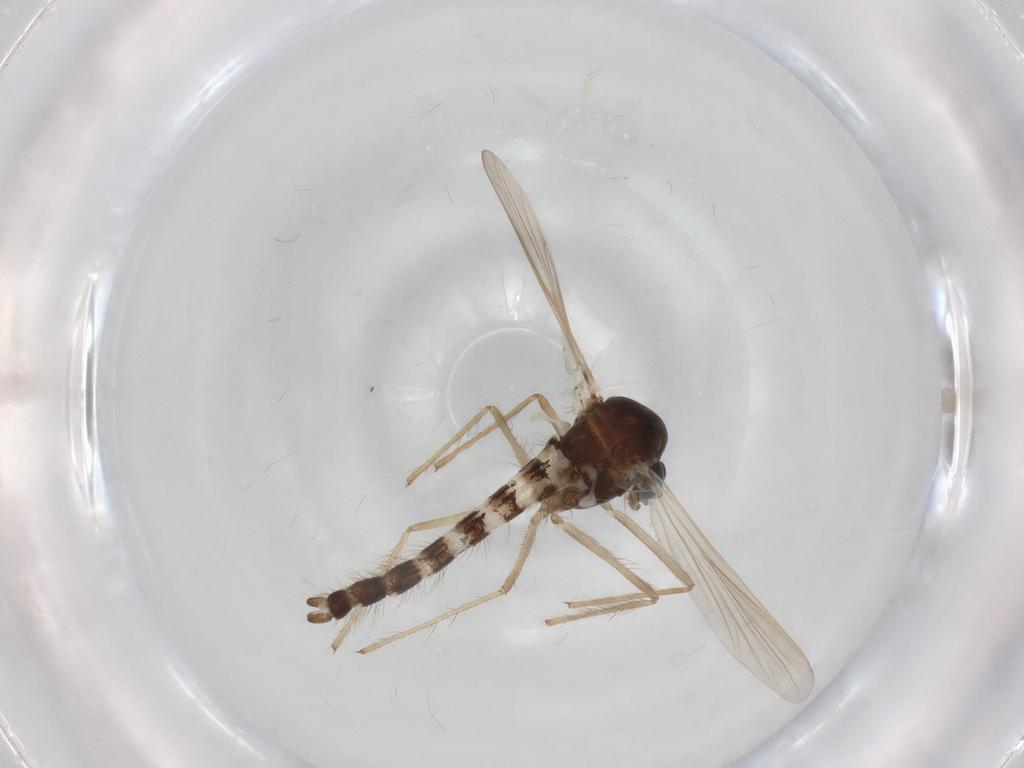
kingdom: Animalia
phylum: Arthropoda
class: Insecta
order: Diptera
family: Chironomidae
